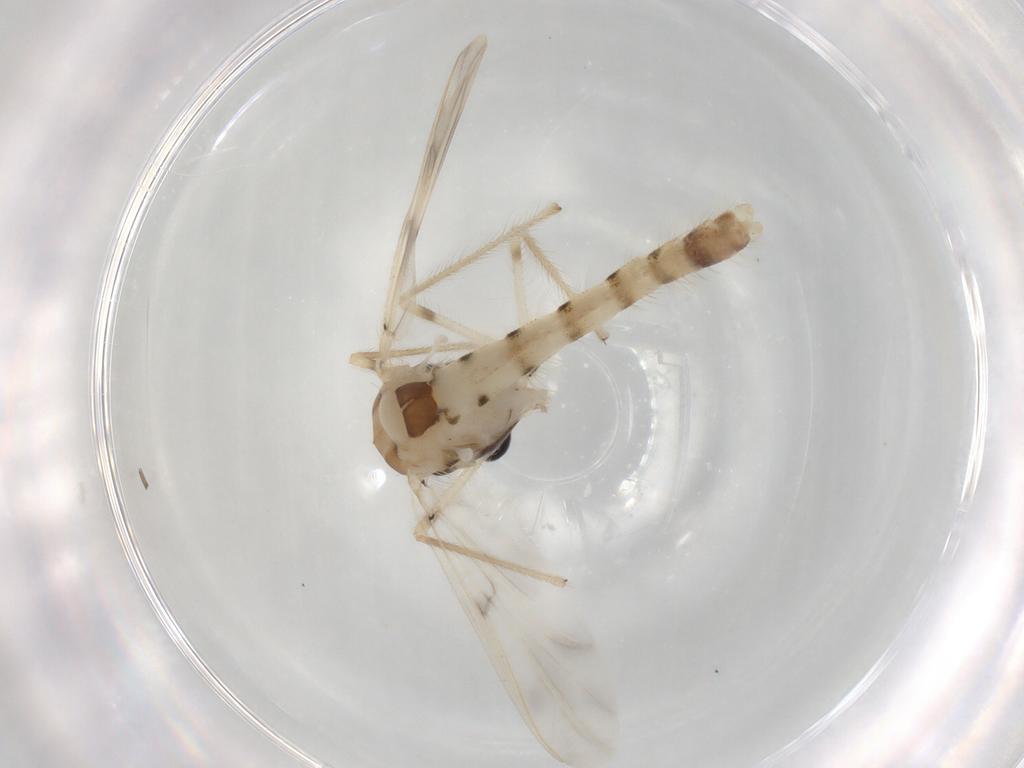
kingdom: Animalia
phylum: Arthropoda
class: Insecta
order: Diptera
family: Chironomidae
